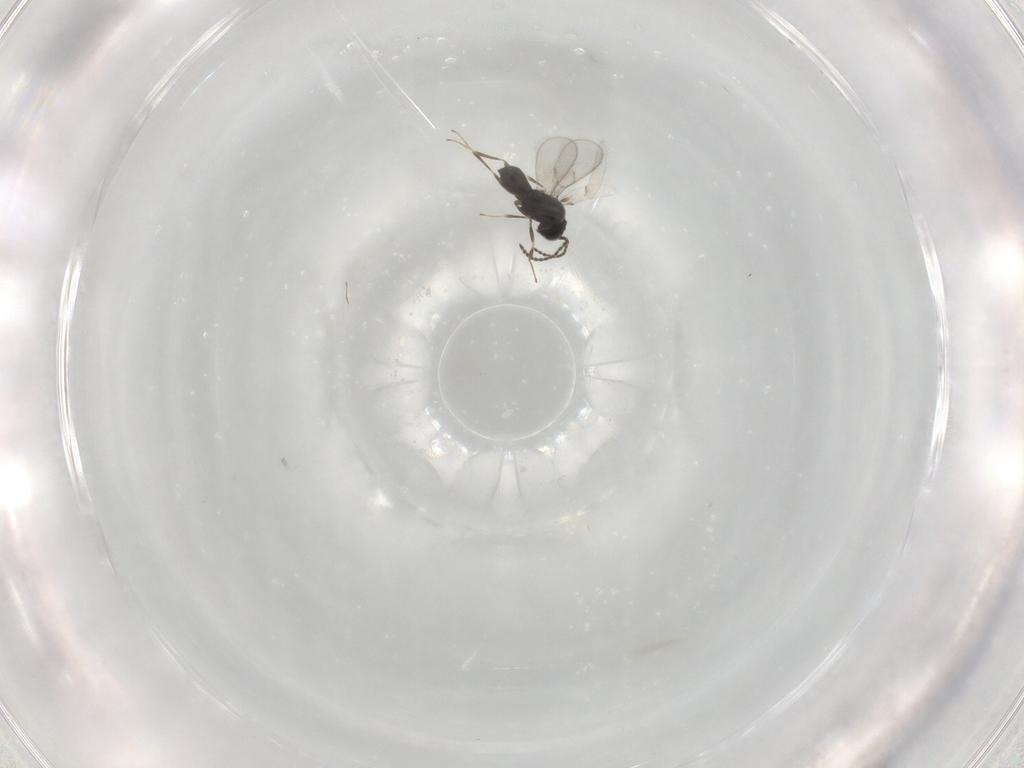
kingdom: Animalia
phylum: Arthropoda
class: Insecta
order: Hymenoptera
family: Scelionidae
